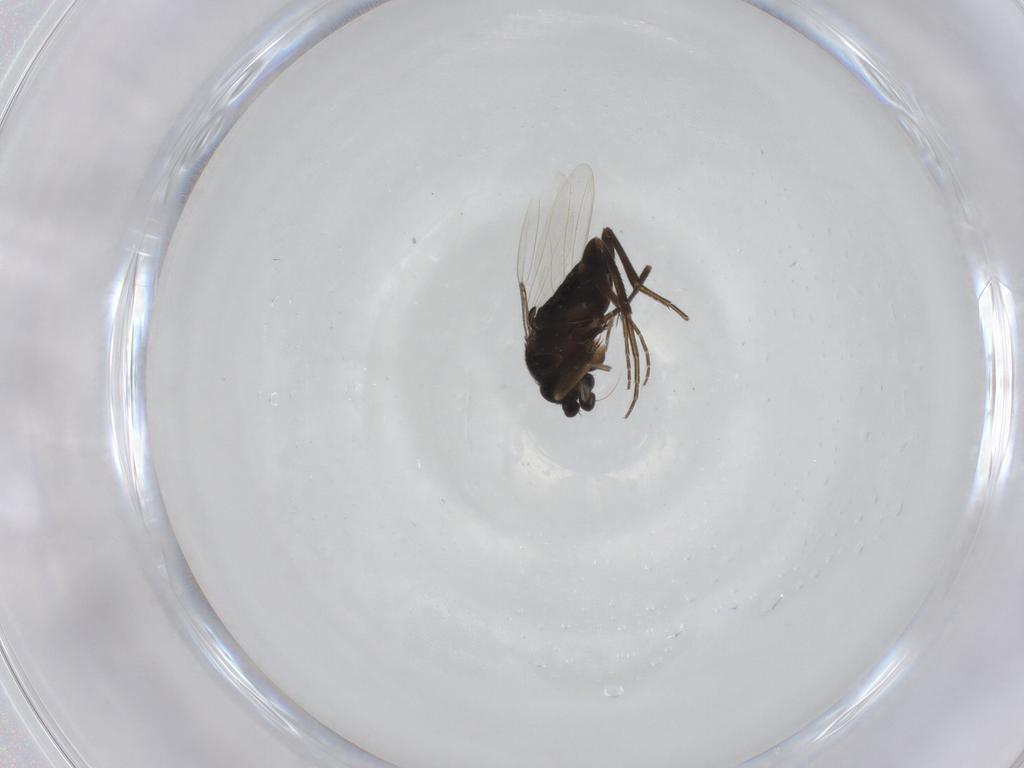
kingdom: Animalia
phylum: Arthropoda
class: Insecta
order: Diptera
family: Phoridae
